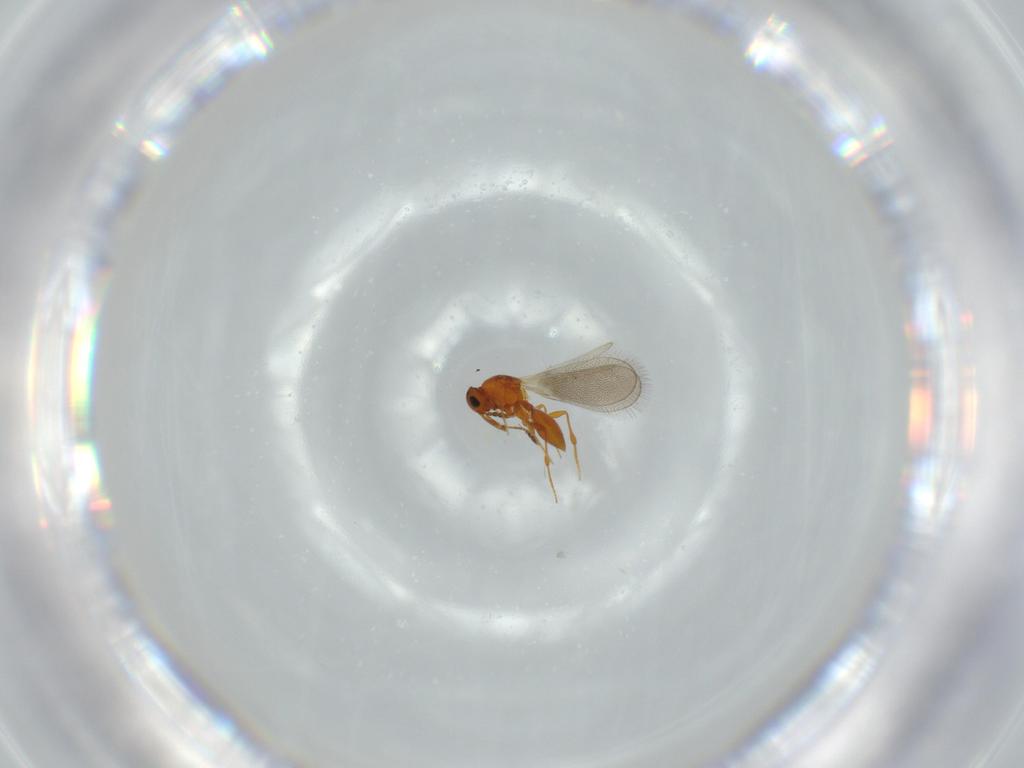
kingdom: Animalia
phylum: Arthropoda
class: Insecta
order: Hymenoptera
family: Platygastridae
